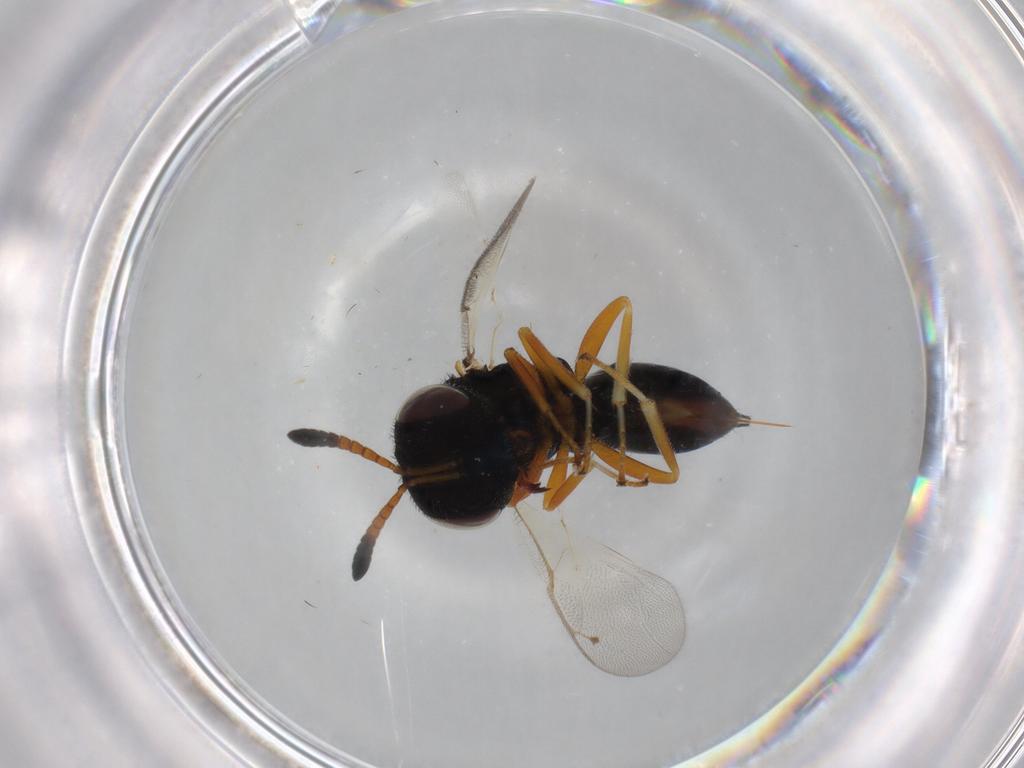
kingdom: Animalia
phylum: Arthropoda
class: Insecta
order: Hymenoptera
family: Agaonidae
